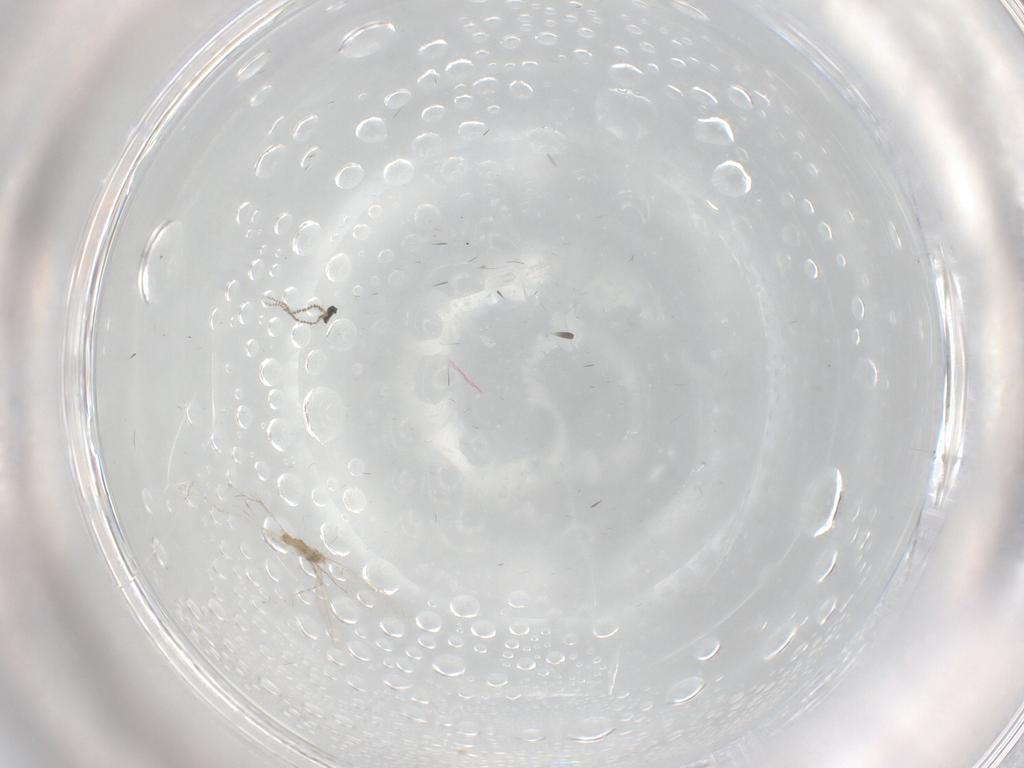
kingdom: Animalia
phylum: Arthropoda
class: Insecta
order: Diptera
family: Cecidomyiidae
